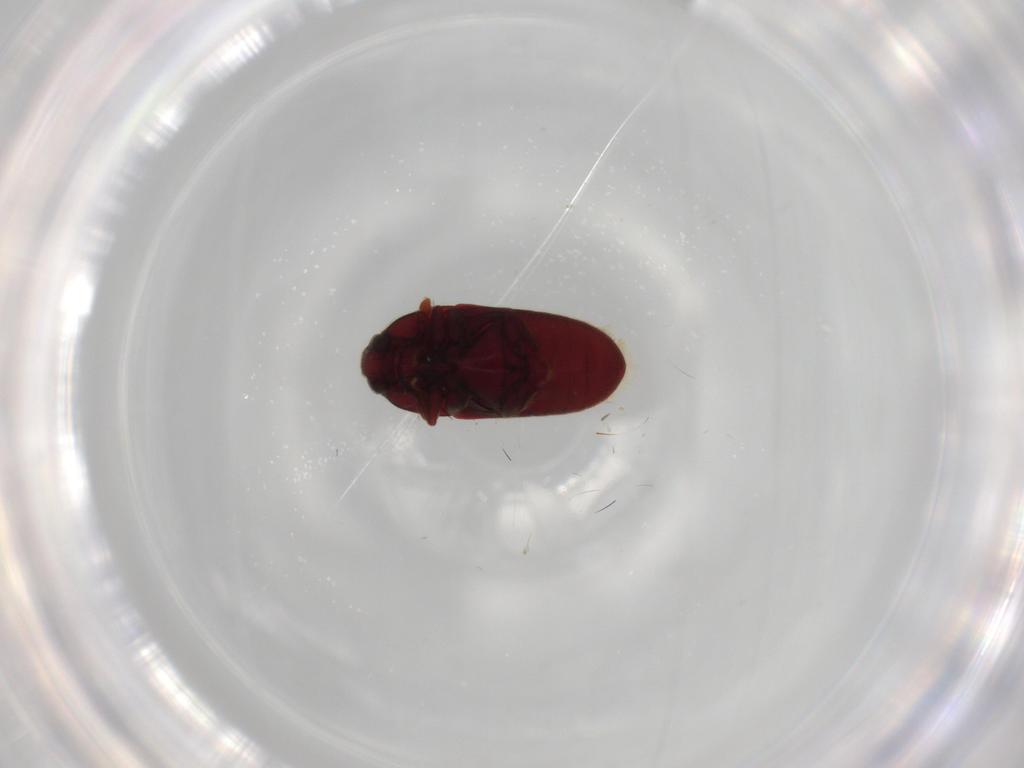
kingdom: Animalia
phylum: Arthropoda
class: Insecta
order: Coleoptera
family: Throscidae
